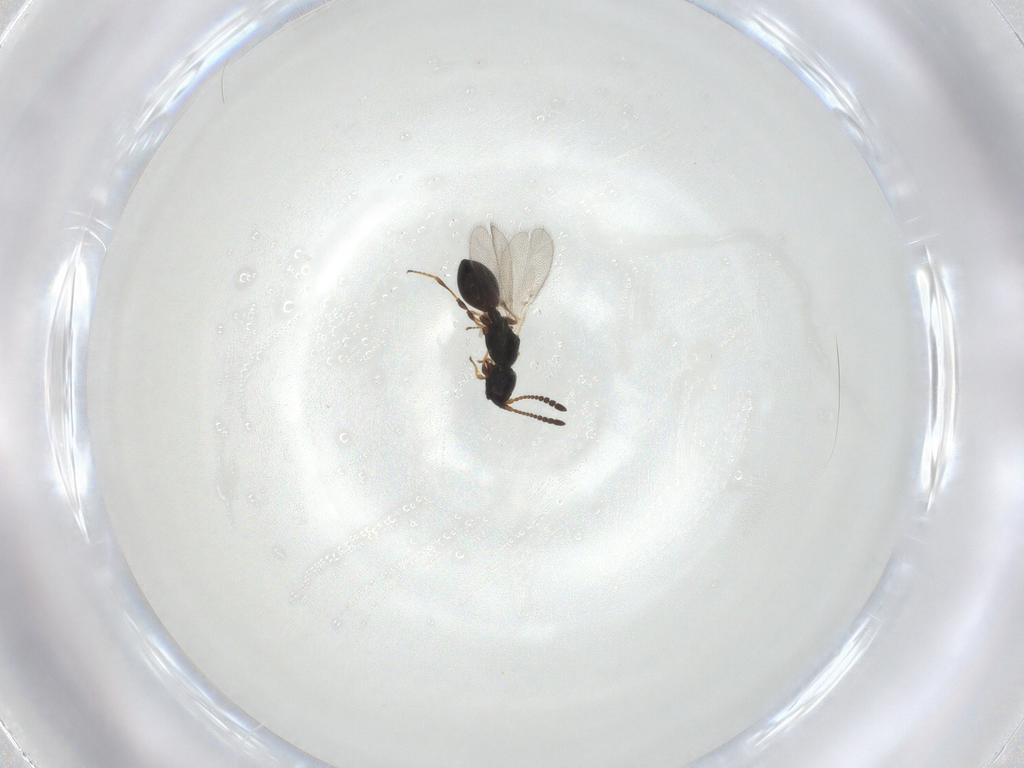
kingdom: Animalia
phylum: Arthropoda
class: Insecta
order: Hymenoptera
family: Diapriidae
